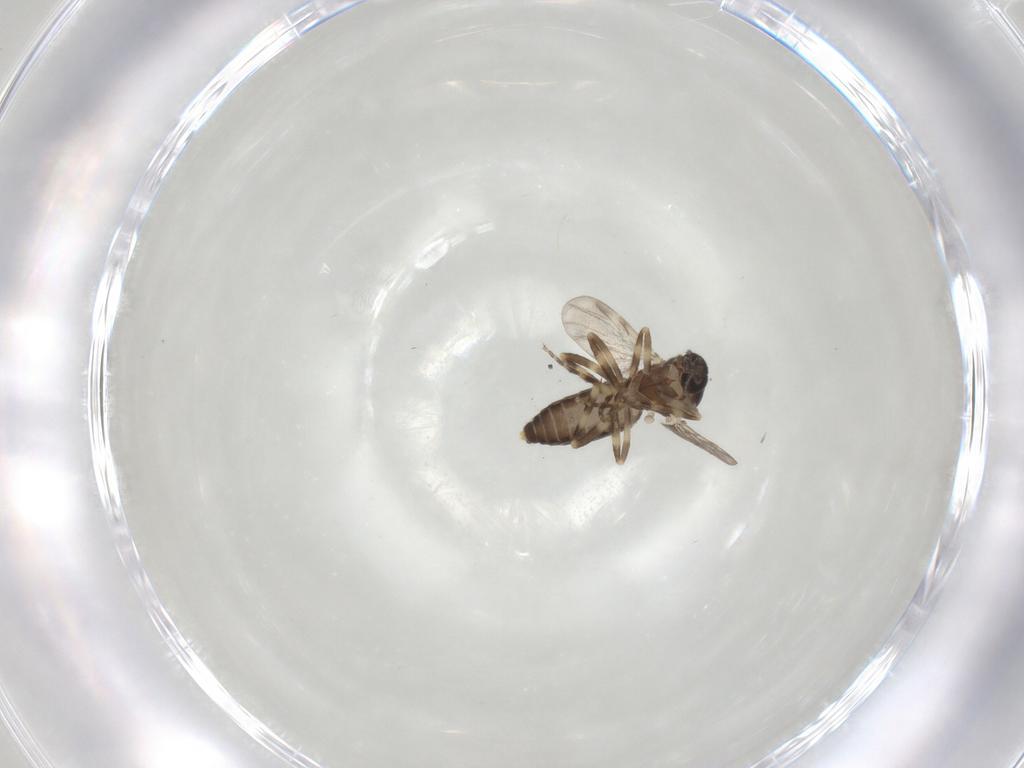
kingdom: Animalia
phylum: Arthropoda
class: Insecta
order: Diptera
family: Ceratopogonidae
